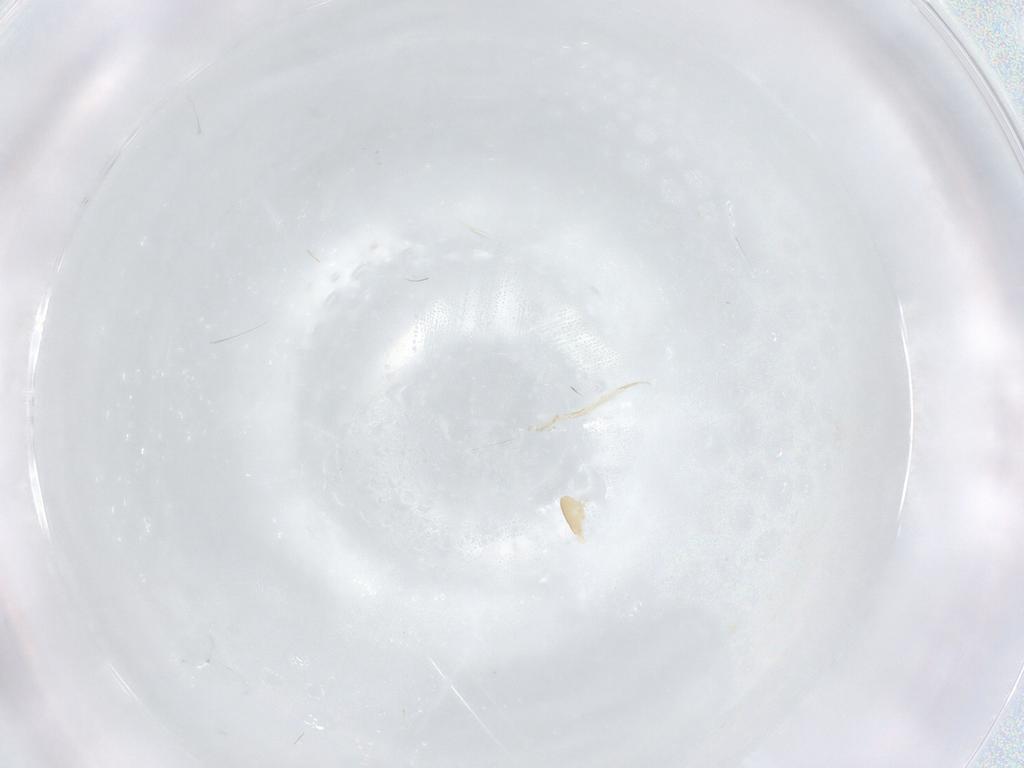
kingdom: Animalia
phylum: Arthropoda
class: Arachnida
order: Mesostigmata
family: Blattisociidae
